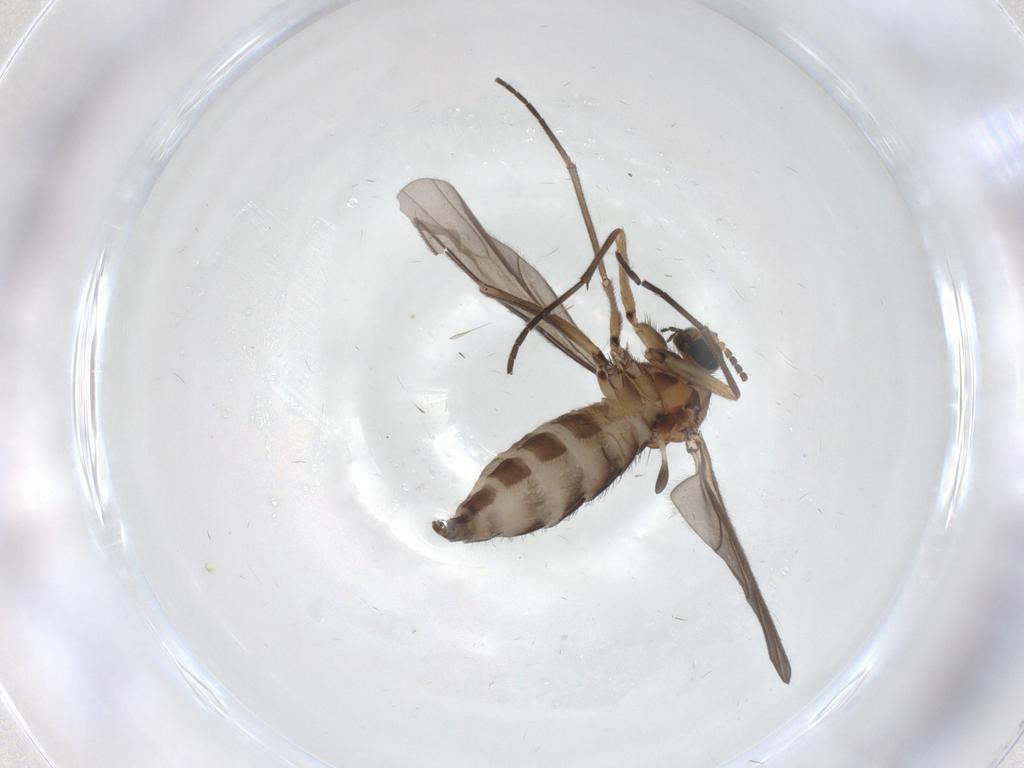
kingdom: Animalia
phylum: Arthropoda
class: Insecta
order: Diptera
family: Sciaridae
